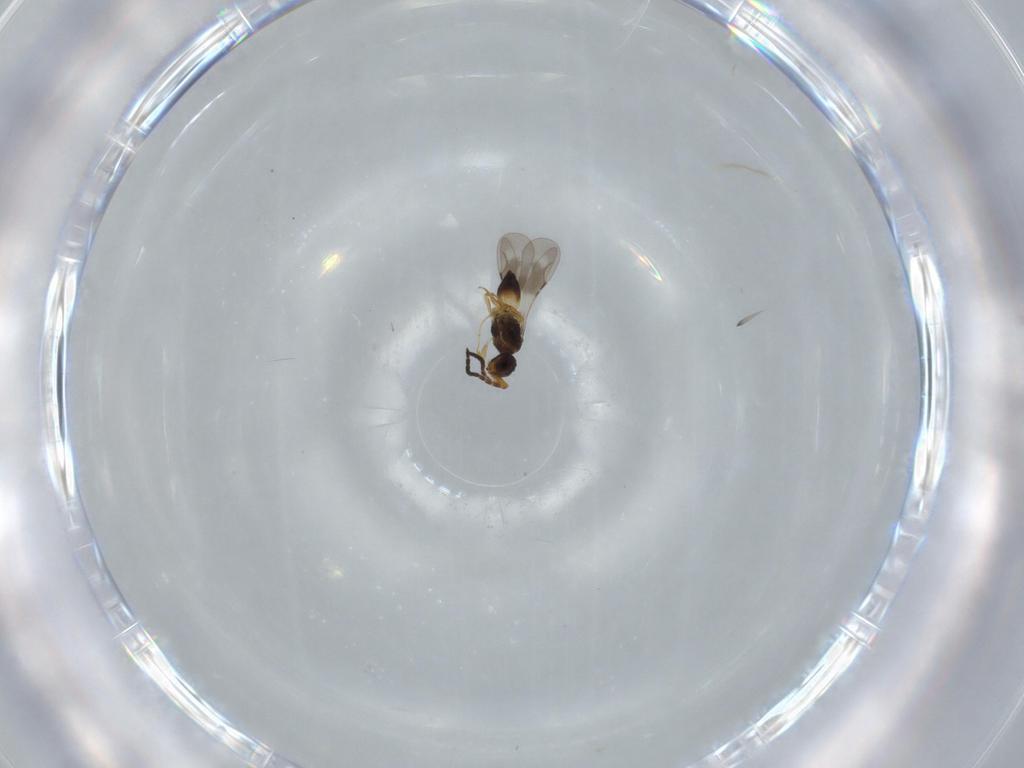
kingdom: Animalia
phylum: Arthropoda
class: Insecta
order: Hymenoptera
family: Ceraphronidae
